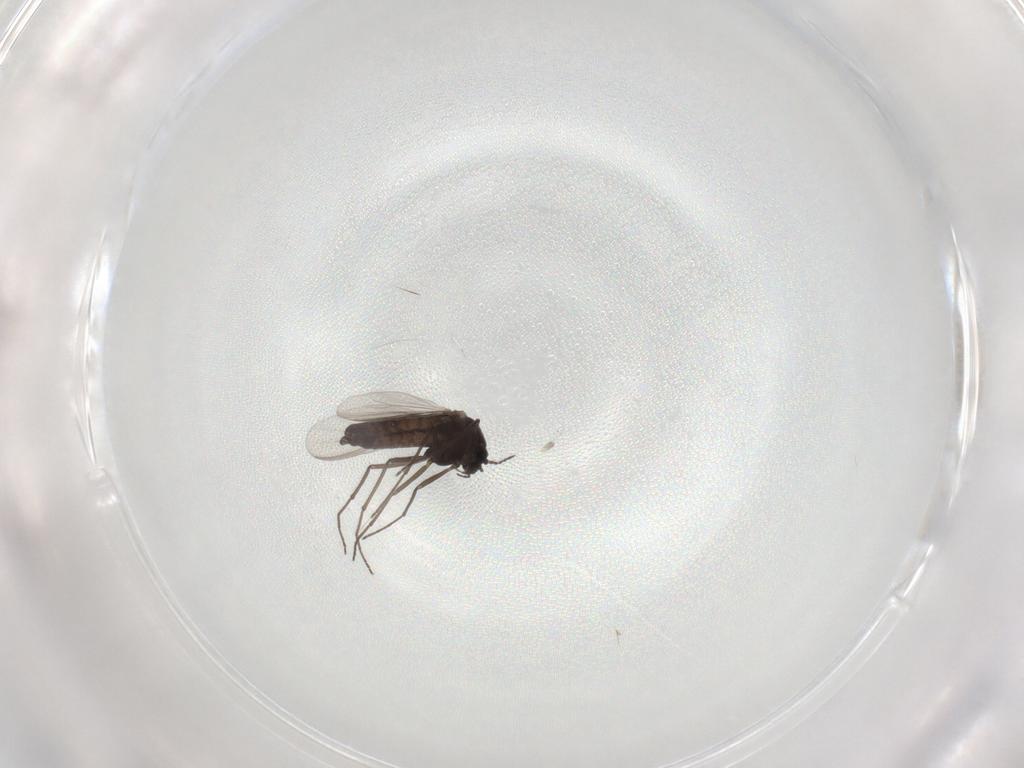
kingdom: Animalia
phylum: Arthropoda
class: Insecta
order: Diptera
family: Chironomidae
